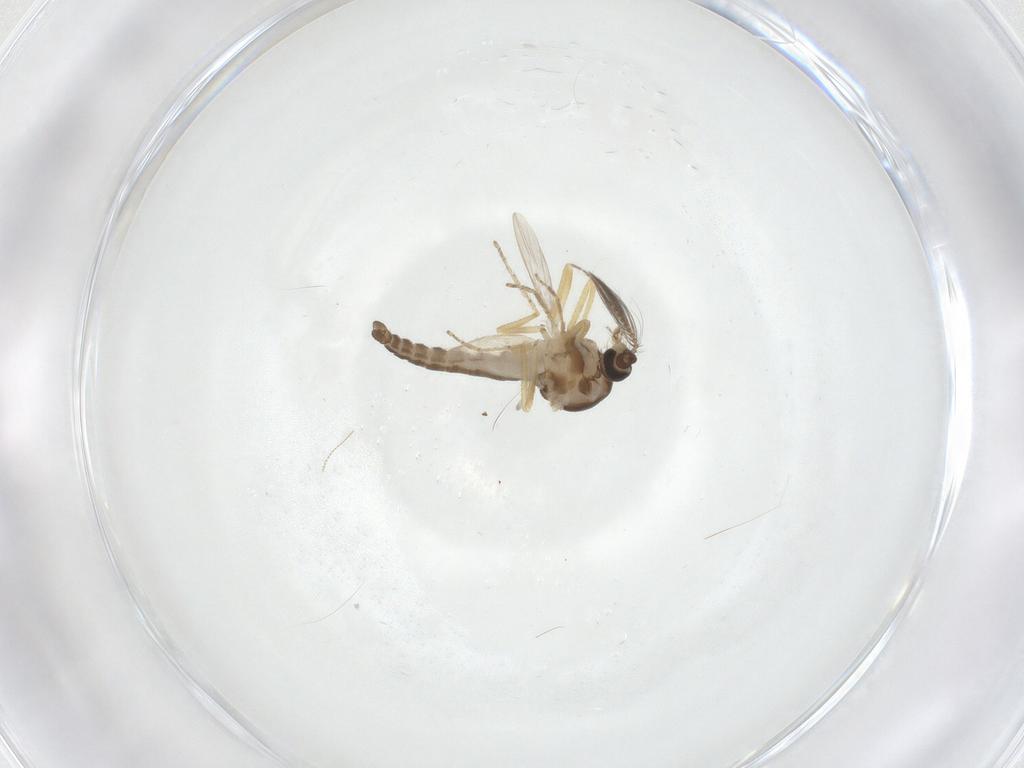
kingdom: Animalia
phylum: Arthropoda
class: Insecta
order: Diptera
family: Ceratopogonidae
